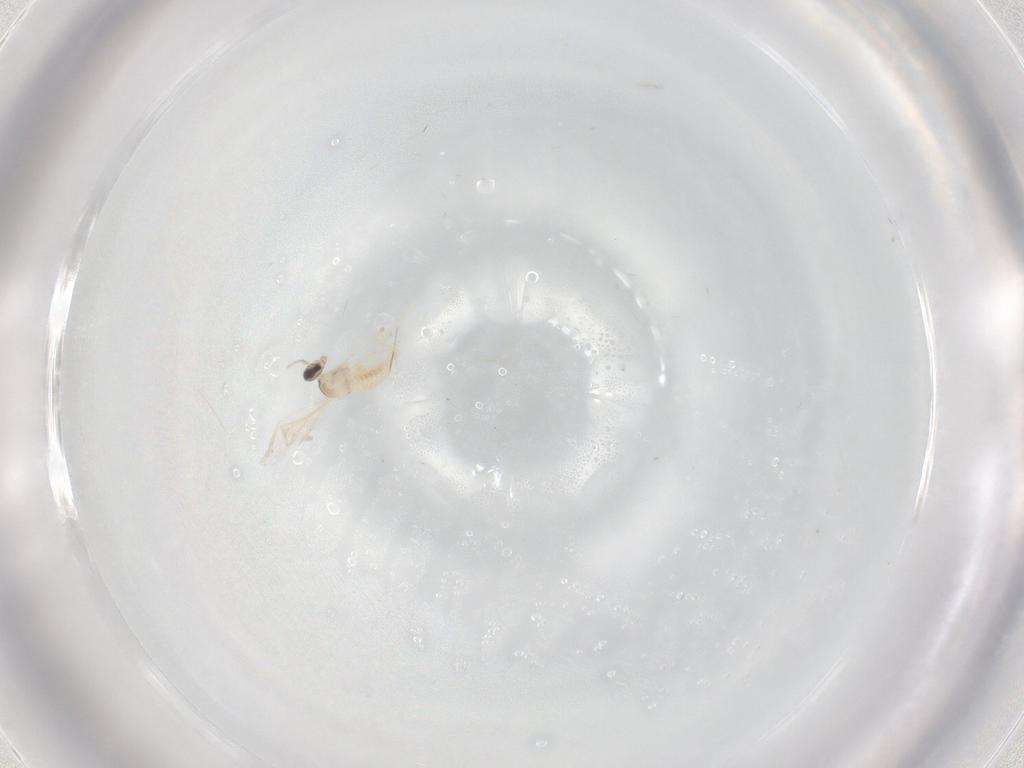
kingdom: Animalia
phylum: Arthropoda
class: Insecta
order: Diptera
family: Cecidomyiidae
